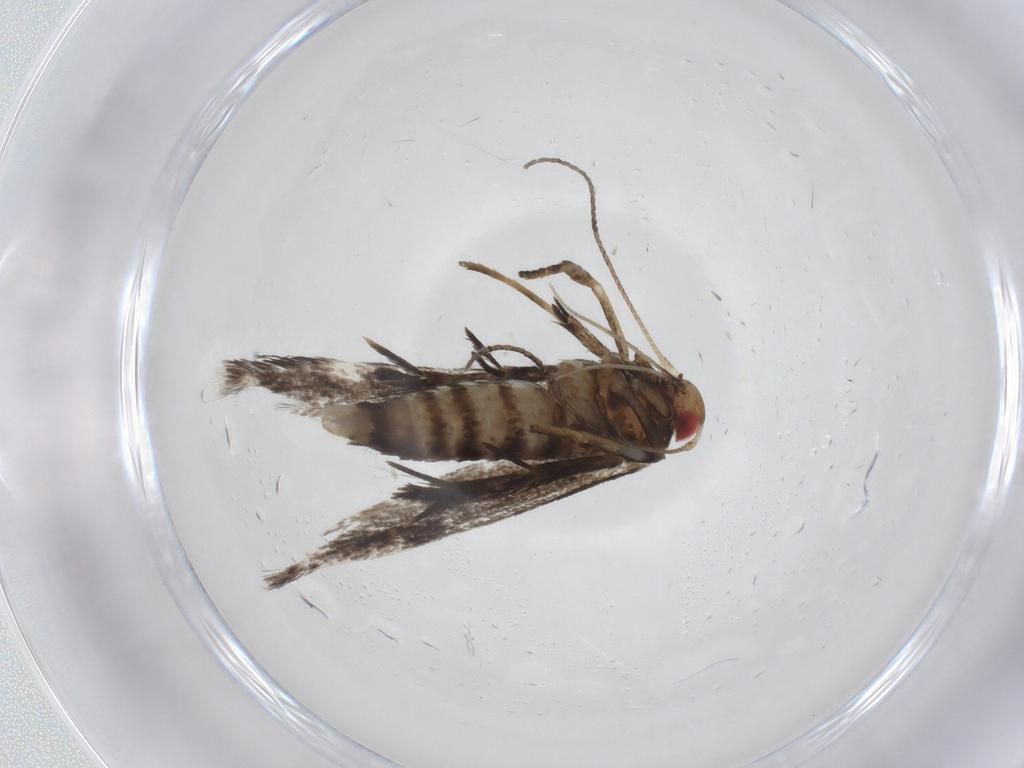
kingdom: Animalia
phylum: Arthropoda
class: Insecta
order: Lepidoptera
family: Gelechiidae
